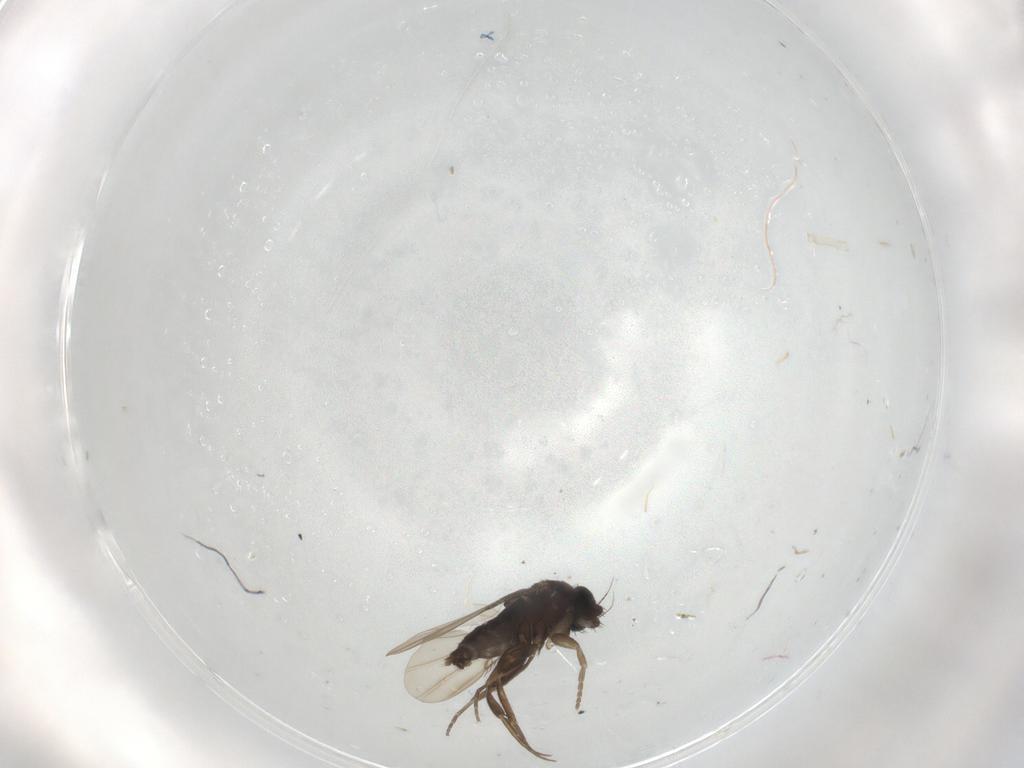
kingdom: Animalia
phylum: Arthropoda
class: Insecta
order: Diptera
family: Phoridae
